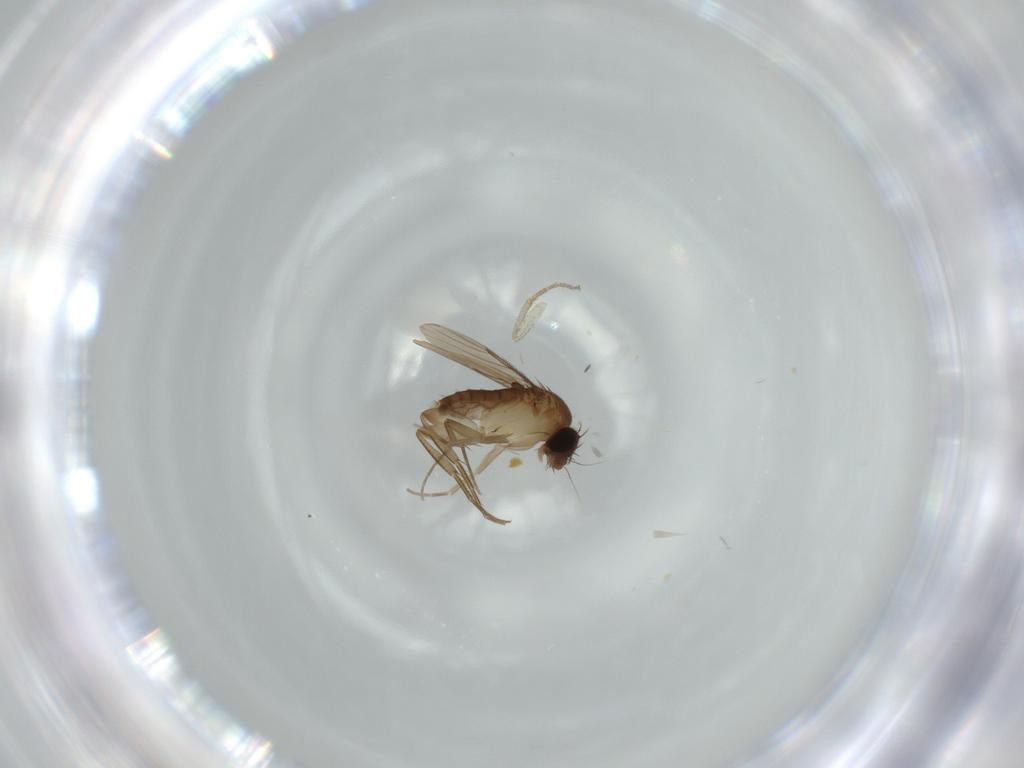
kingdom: Animalia
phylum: Arthropoda
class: Insecta
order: Diptera
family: Phoridae
